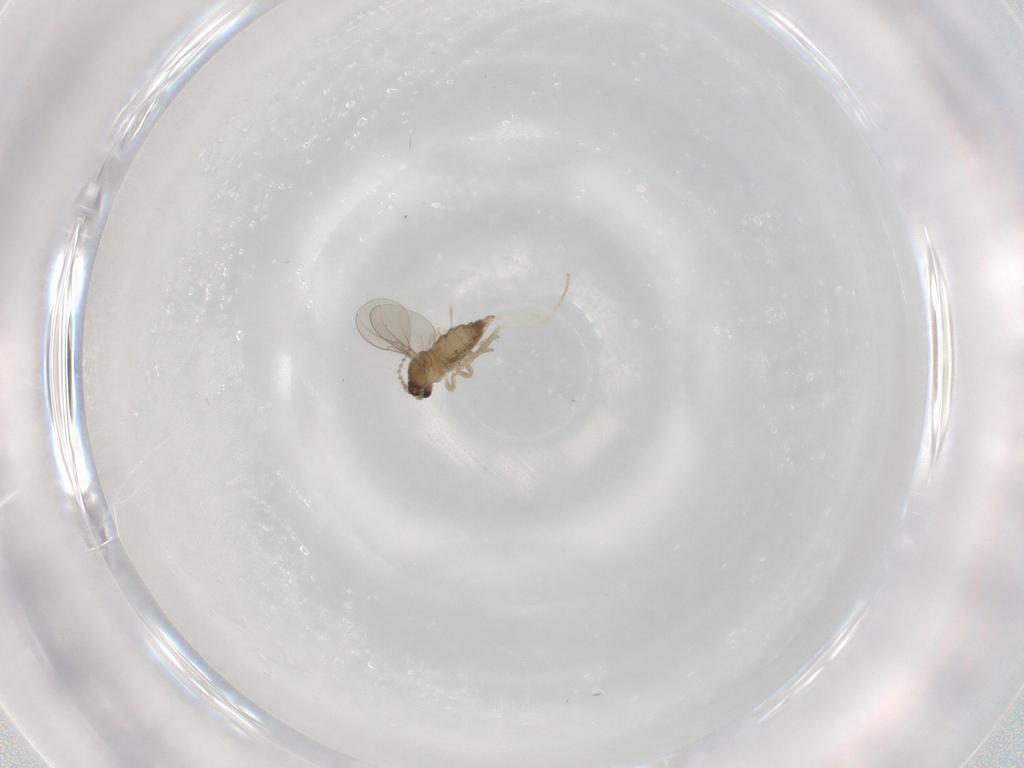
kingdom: Animalia
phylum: Arthropoda
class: Insecta
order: Diptera
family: Cecidomyiidae
